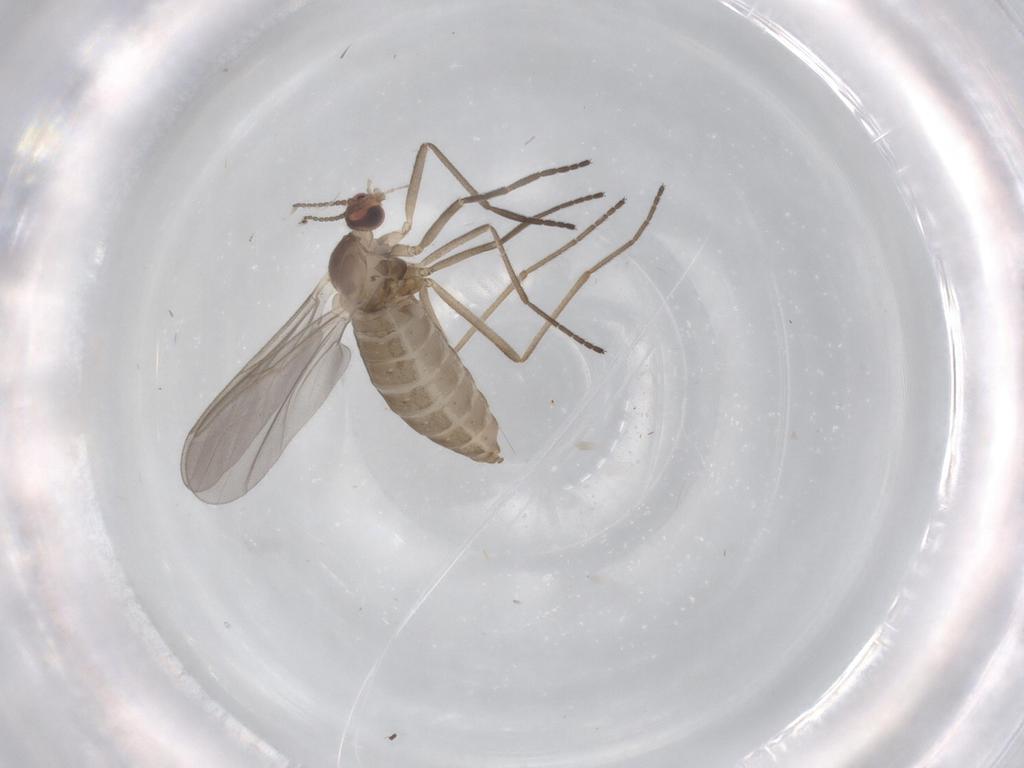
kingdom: Animalia
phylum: Arthropoda
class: Insecta
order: Diptera
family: Cecidomyiidae
